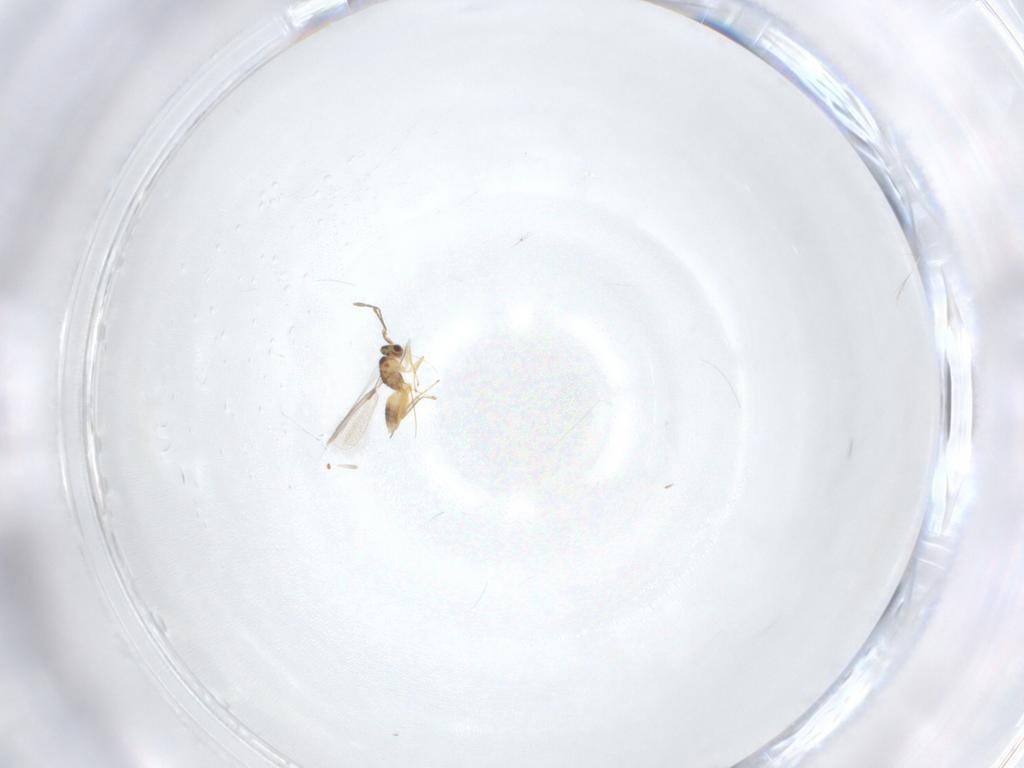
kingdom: Animalia
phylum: Arthropoda
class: Insecta
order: Hymenoptera
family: Mymaridae
